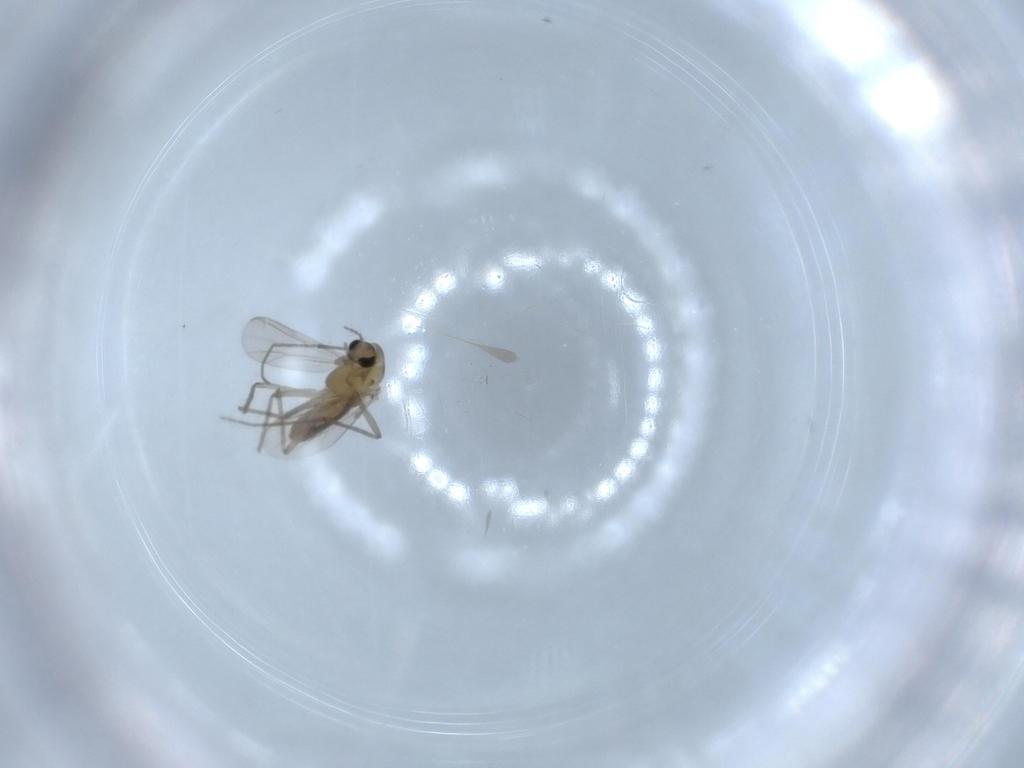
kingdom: Animalia
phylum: Arthropoda
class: Insecta
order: Diptera
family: Chironomidae
